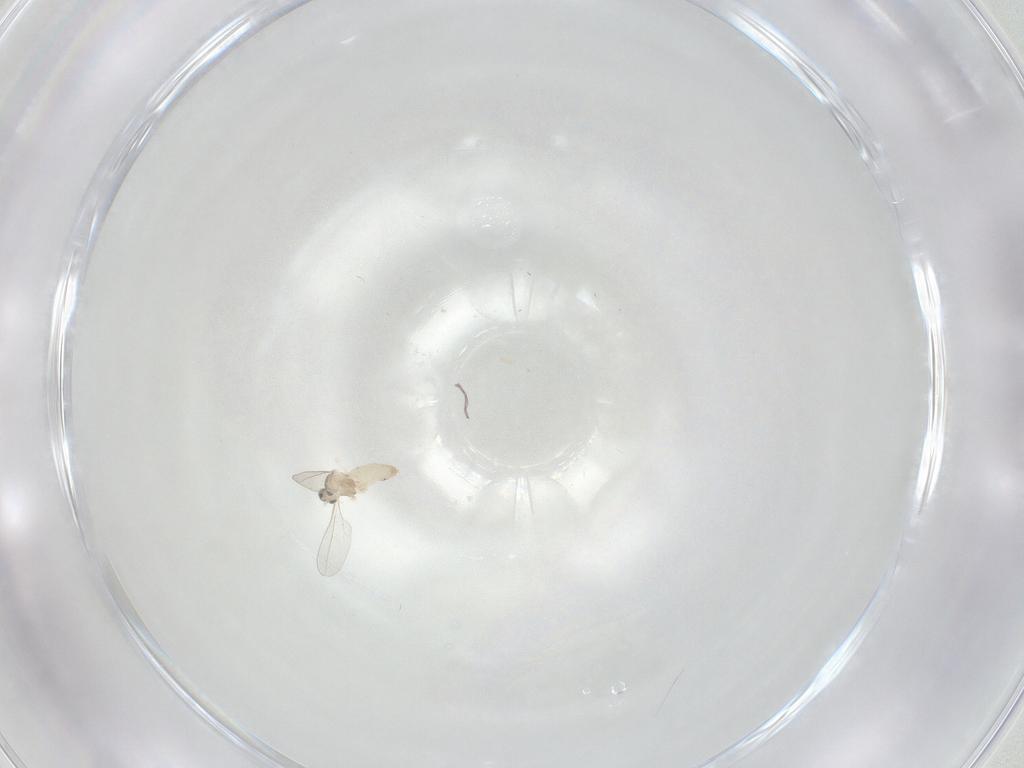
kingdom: Animalia
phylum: Arthropoda
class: Insecta
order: Diptera
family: Cecidomyiidae
